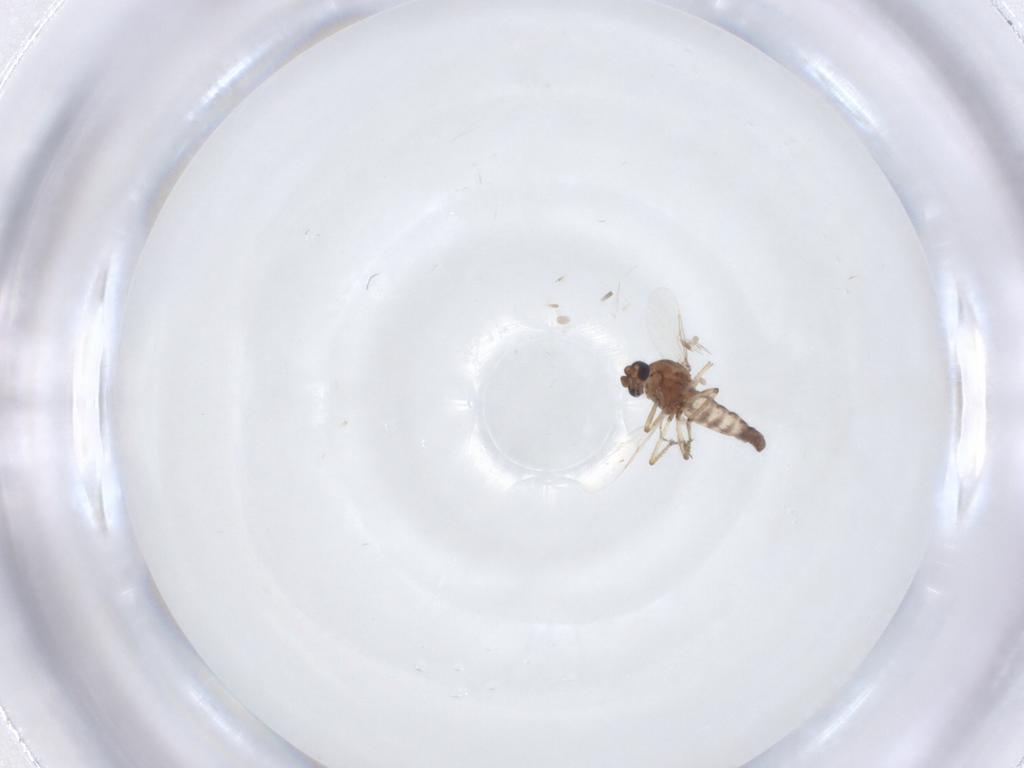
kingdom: Animalia
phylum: Arthropoda
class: Insecta
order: Diptera
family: Ceratopogonidae
